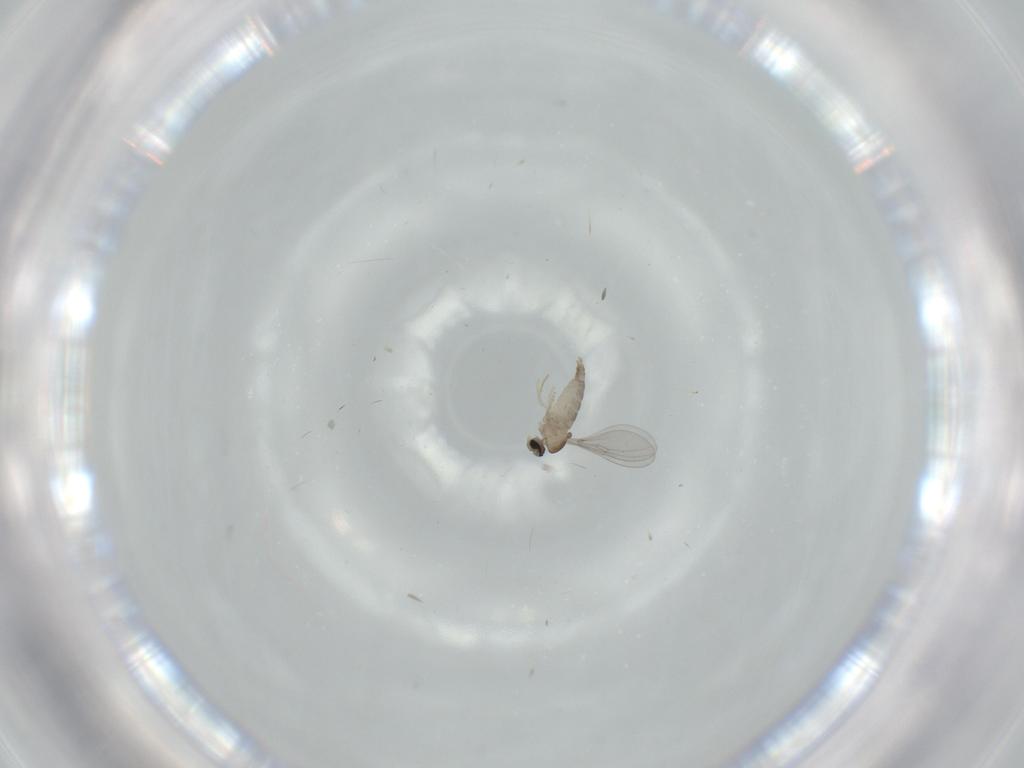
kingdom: Animalia
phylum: Arthropoda
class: Insecta
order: Diptera
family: Cecidomyiidae
